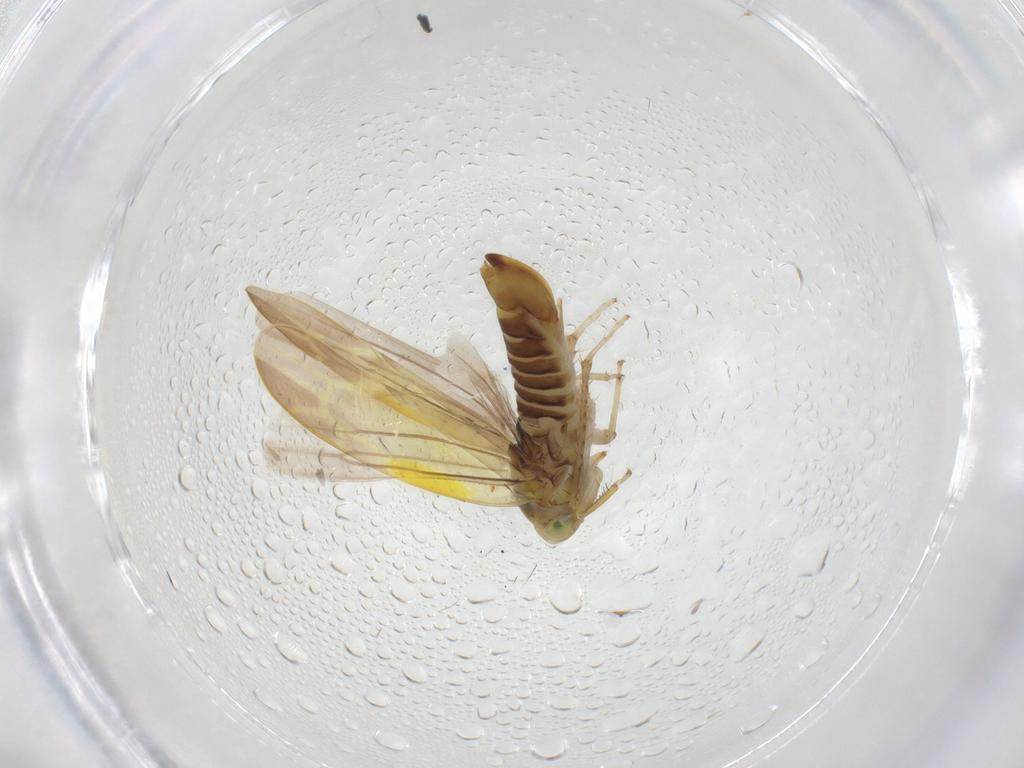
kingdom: Animalia
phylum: Arthropoda
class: Insecta
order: Hemiptera
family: Cicadellidae
